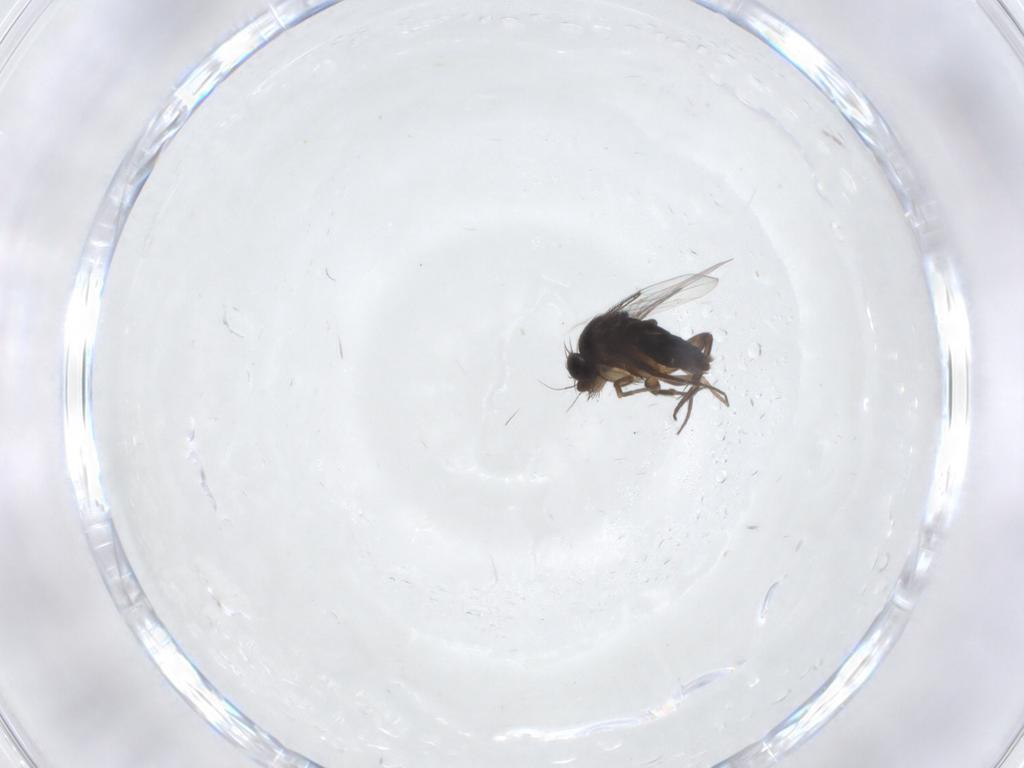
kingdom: Animalia
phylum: Arthropoda
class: Insecta
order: Diptera
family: Phoridae
